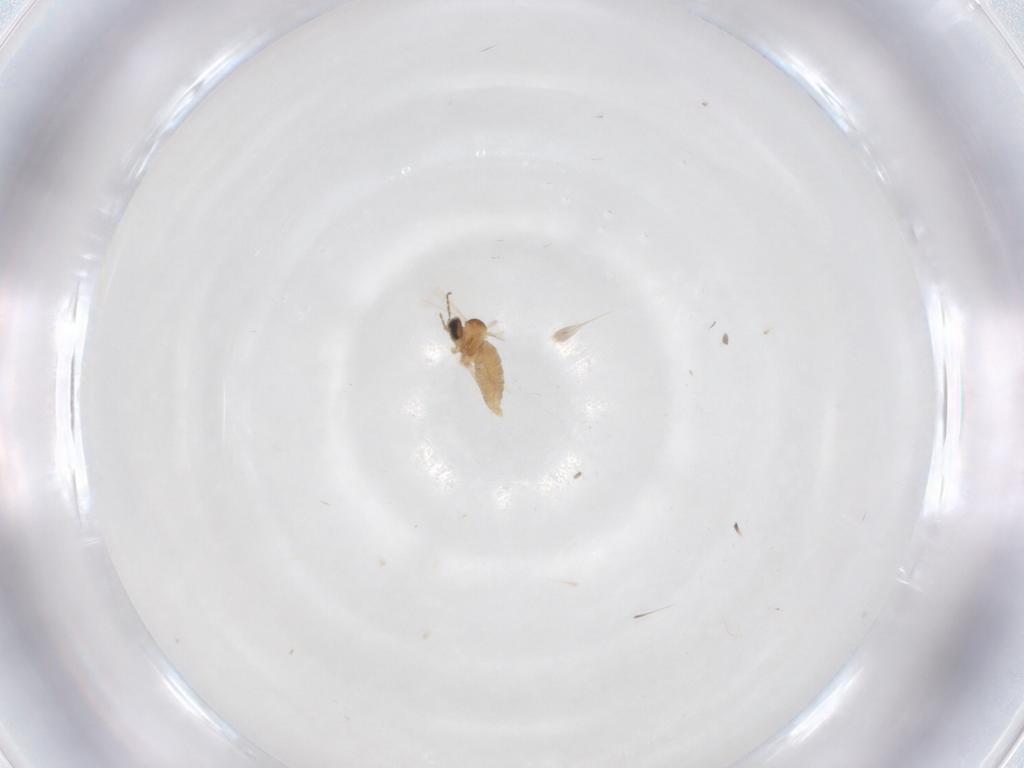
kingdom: Animalia
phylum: Arthropoda
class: Insecta
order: Diptera
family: Cecidomyiidae
